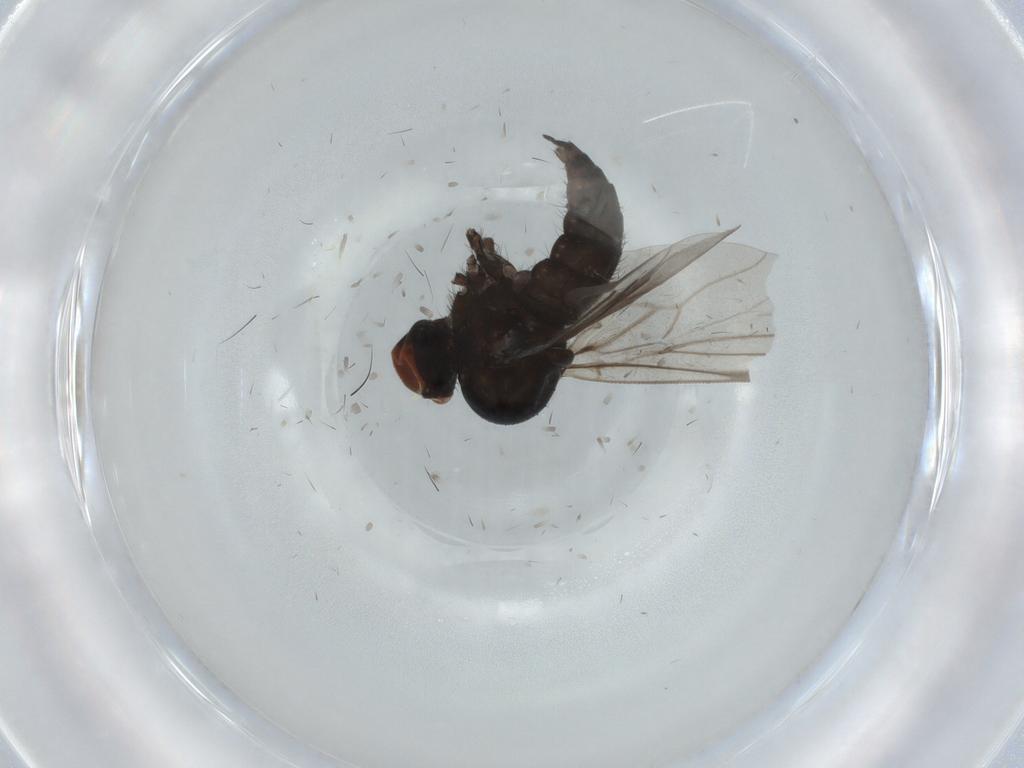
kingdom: Animalia
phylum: Arthropoda
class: Insecta
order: Diptera
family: Hybotidae
